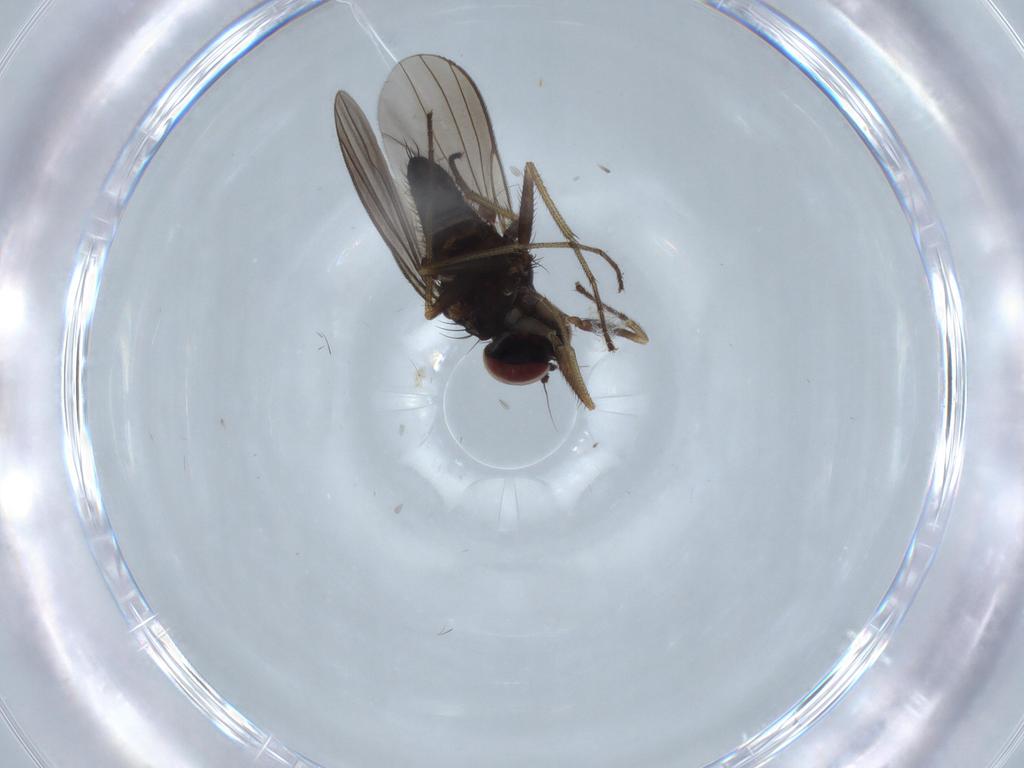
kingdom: Animalia
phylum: Arthropoda
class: Insecta
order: Diptera
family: Dolichopodidae
